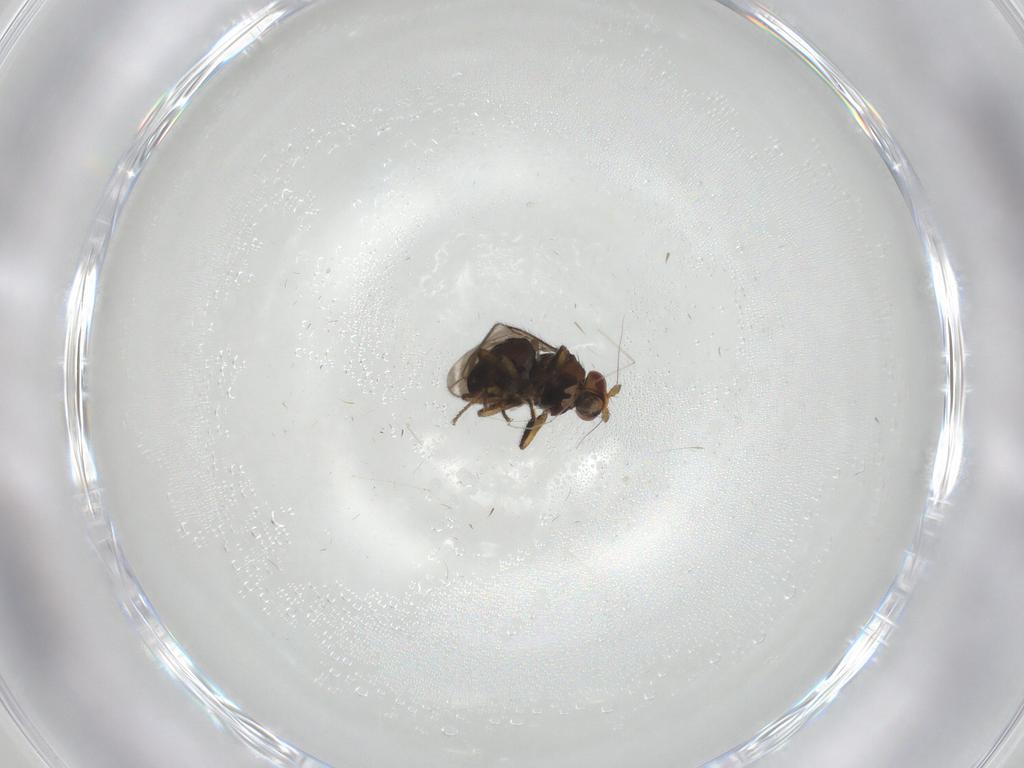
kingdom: Animalia
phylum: Arthropoda
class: Insecta
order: Diptera
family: Sphaeroceridae
